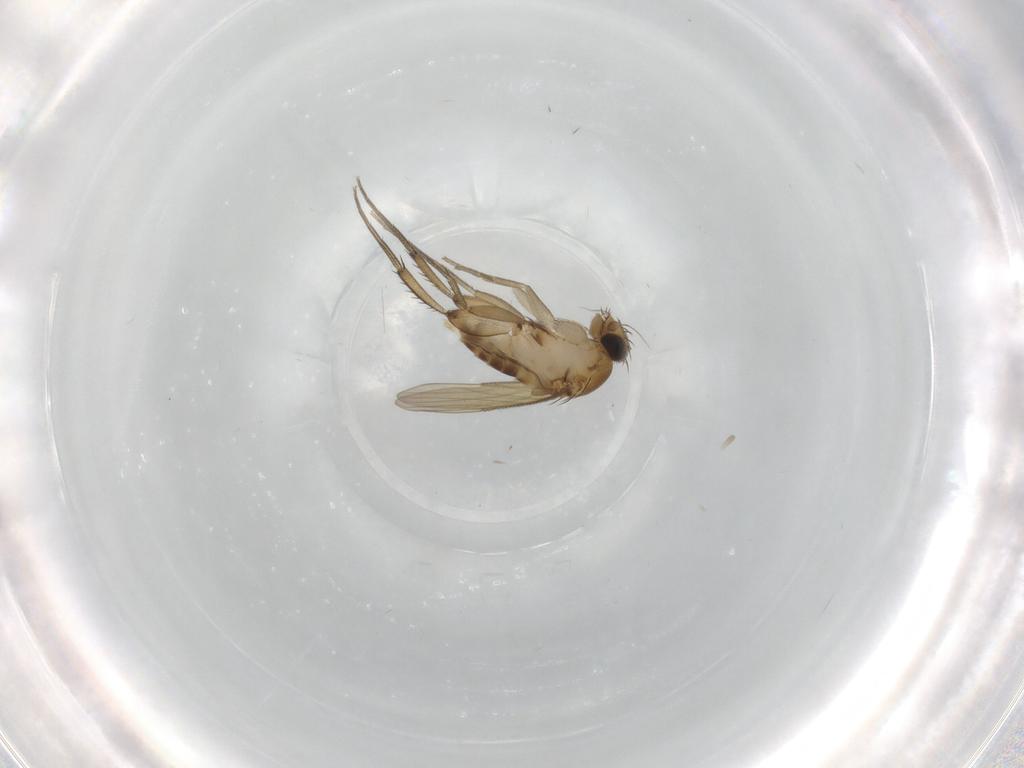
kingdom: Animalia
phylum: Arthropoda
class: Insecta
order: Diptera
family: Phoridae
